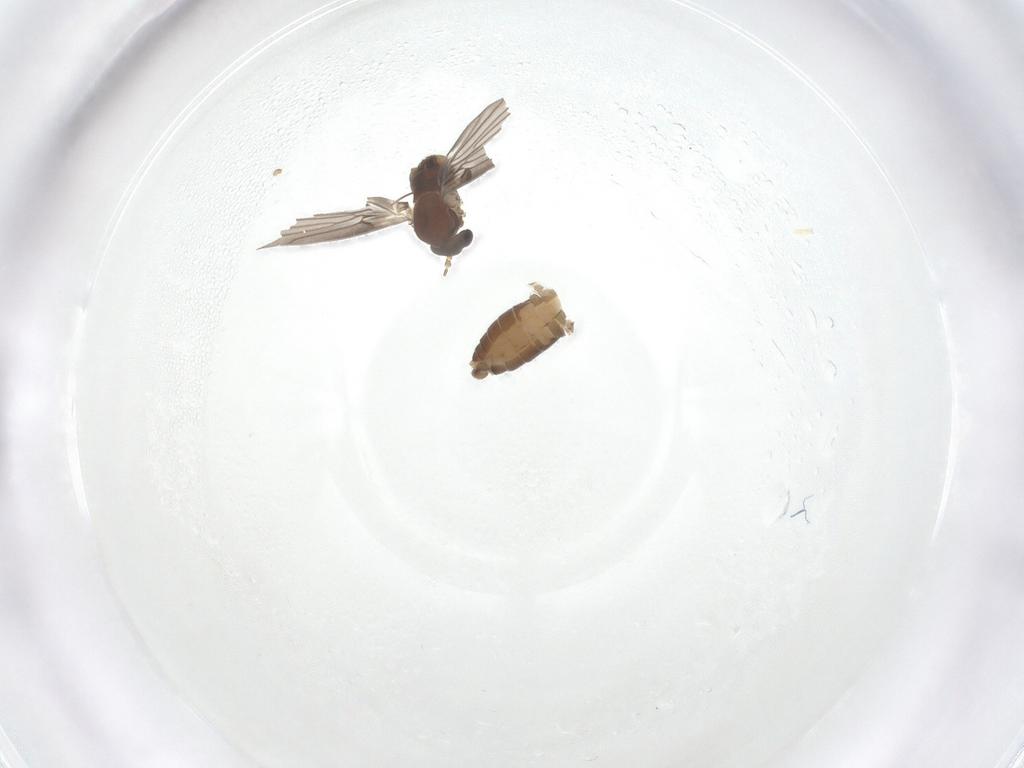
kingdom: Animalia
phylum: Arthropoda
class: Insecta
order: Diptera
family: Psychodidae
